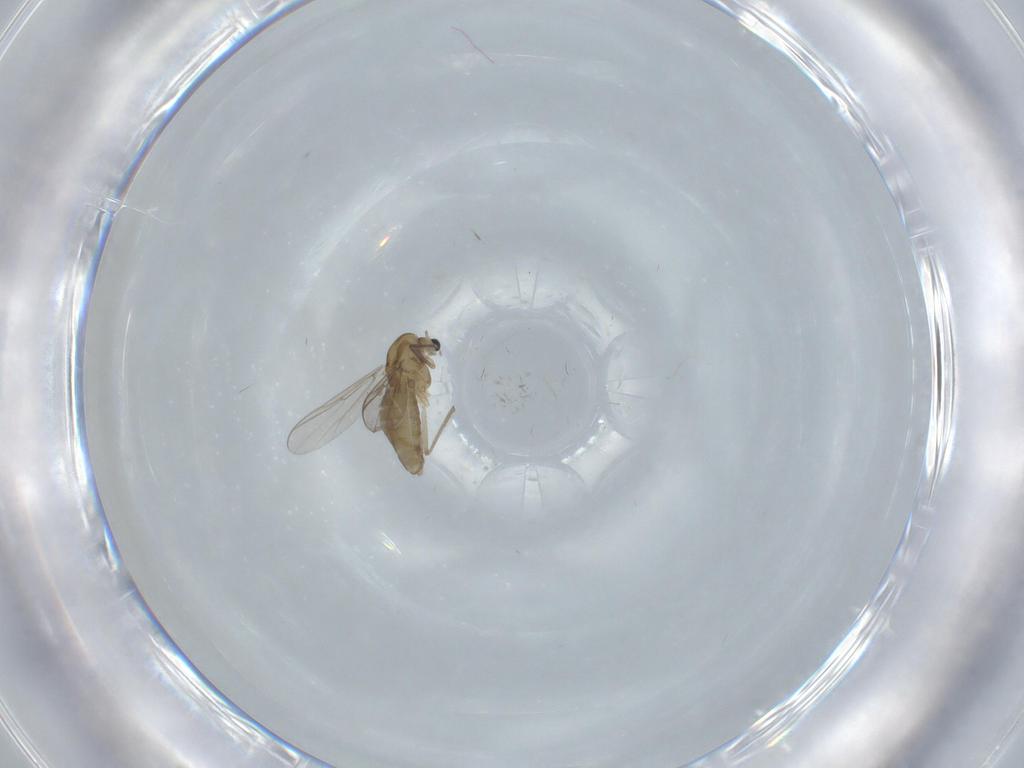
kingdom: Animalia
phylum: Arthropoda
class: Insecta
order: Diptera
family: Chironomidae
